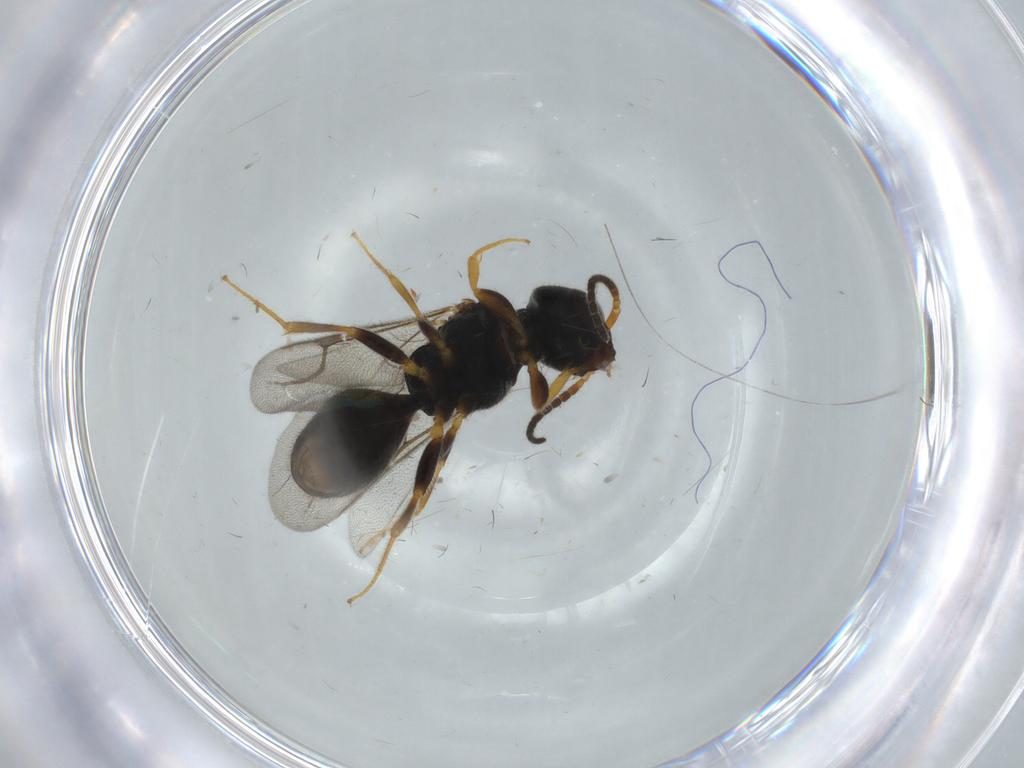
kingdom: Animalia
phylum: Arthropoda
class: Insecta
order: Hymenoptera
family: Bethylidae
